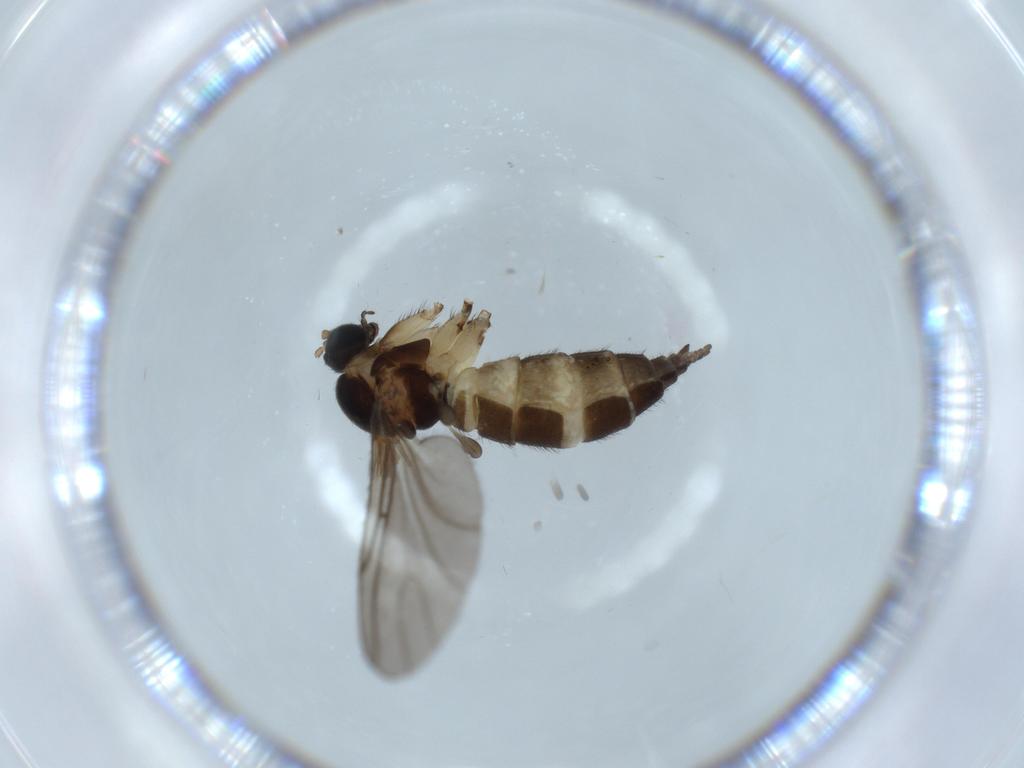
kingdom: Animalia
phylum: Arthropoda
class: Insecta
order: Diptera
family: Sciaridae
